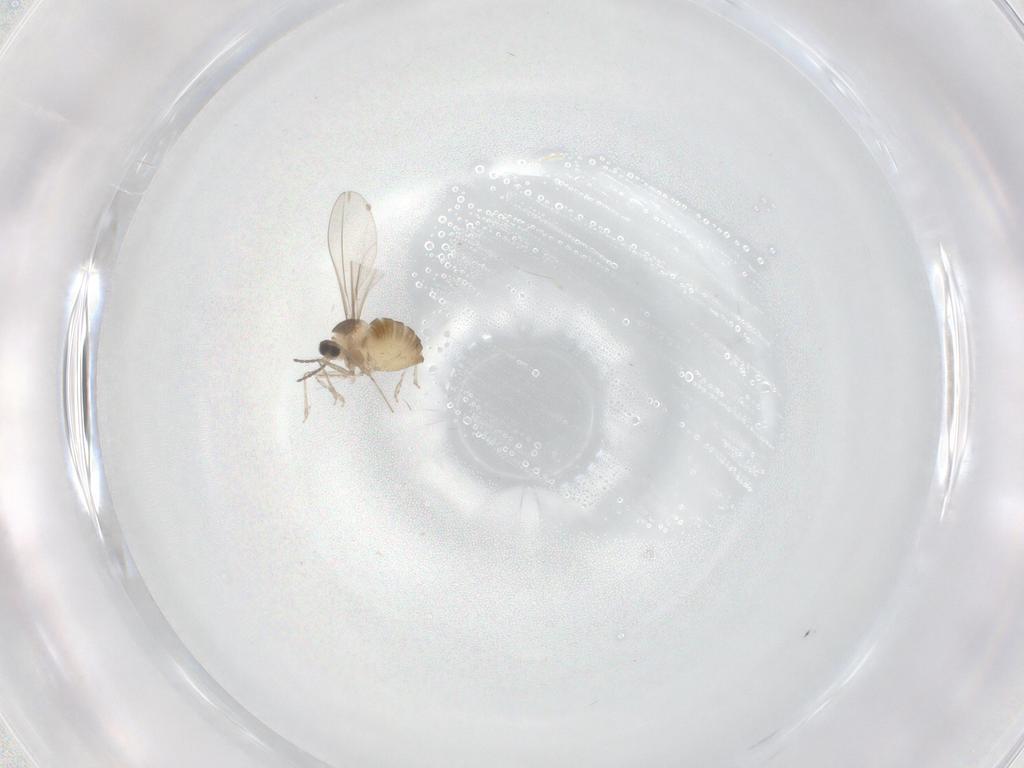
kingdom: Animalia
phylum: Arthropoda
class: Insecta
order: Diptera
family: Cecidomyiidae
